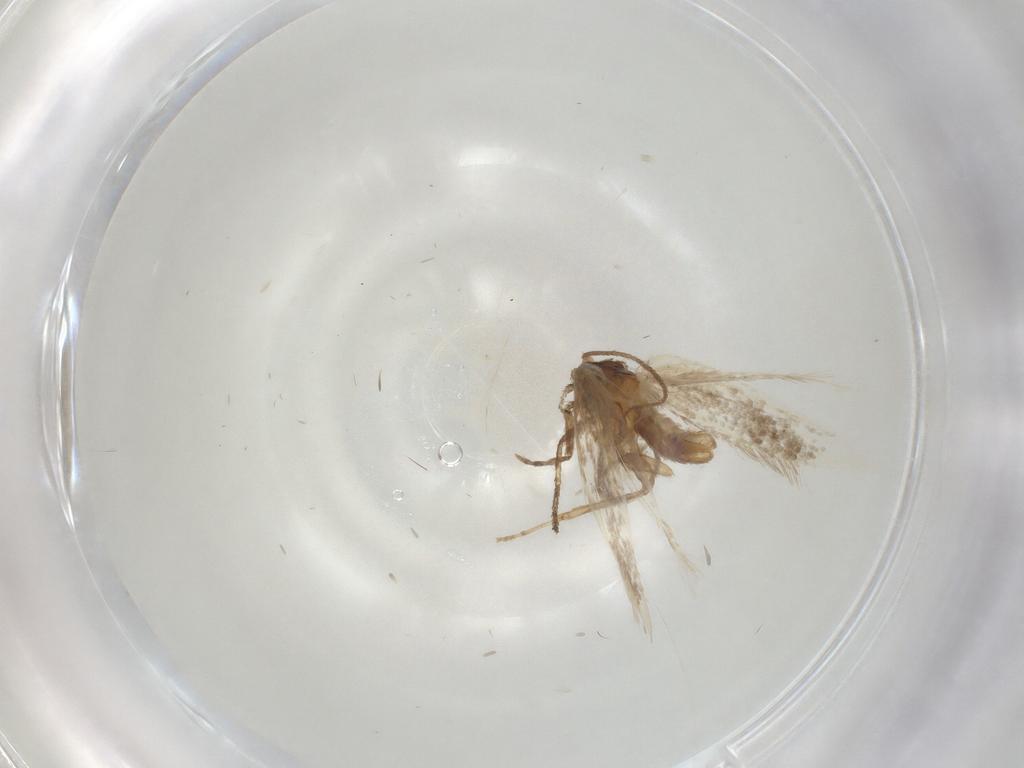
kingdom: Animalia
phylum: Arthropoda
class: Insecta
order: Lepidoptera
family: Nepticulidae
